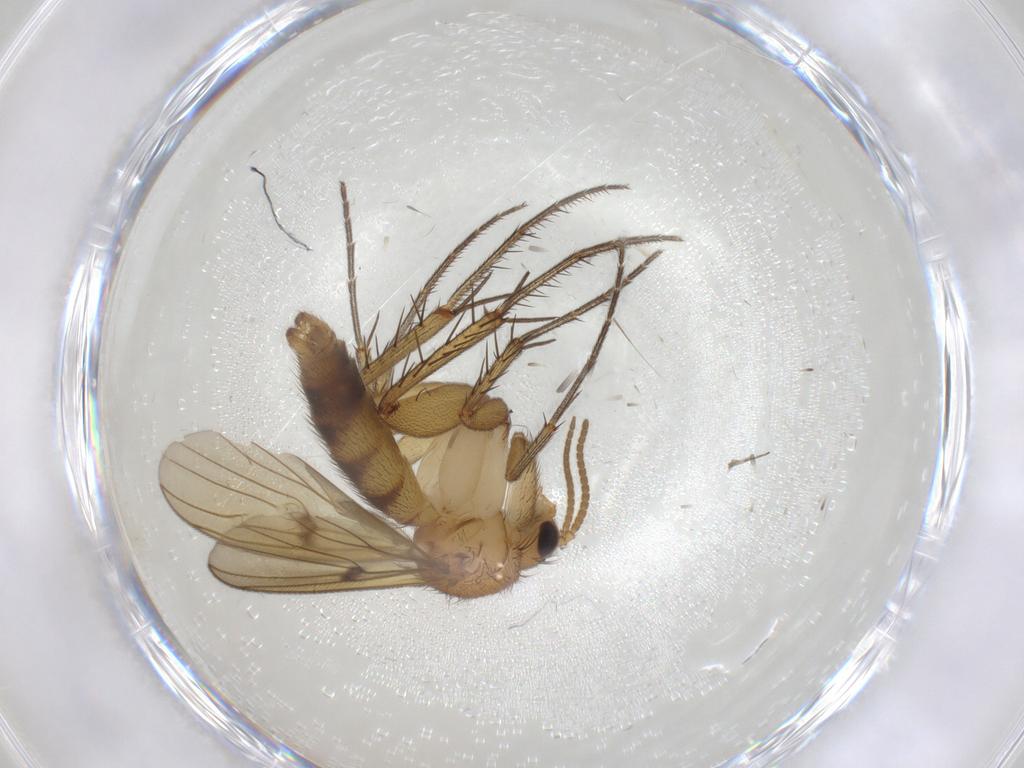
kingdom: Animalia
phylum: Arthropoda
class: Insecta
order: Diptera
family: Mycetophilidae
